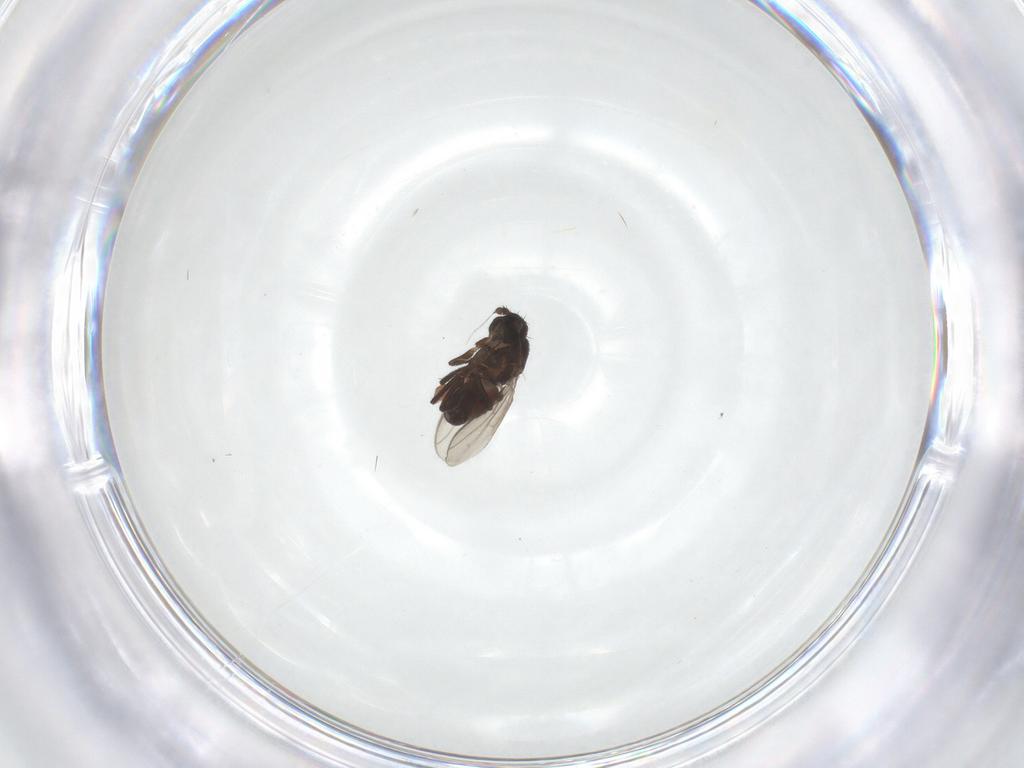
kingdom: Animalia
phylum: Arthropoda
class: Insecta
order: Diptera
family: Sphaeroceridae
